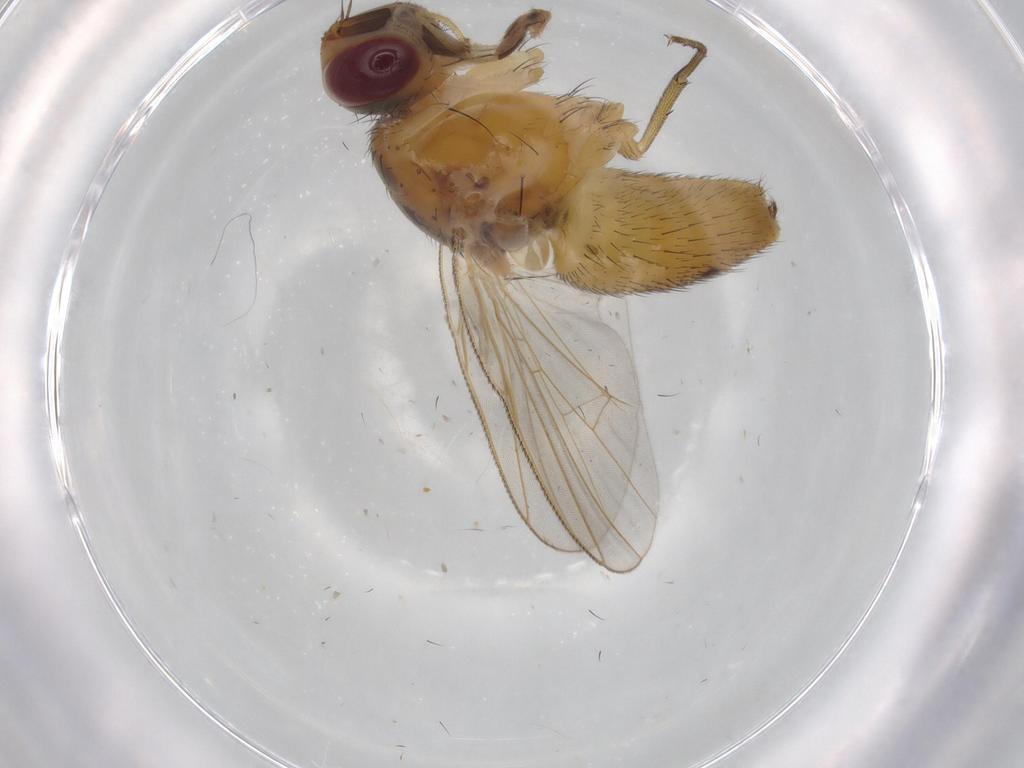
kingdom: Animalia
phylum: Arthropoda
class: Insecta
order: Diptera
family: Muscidae
